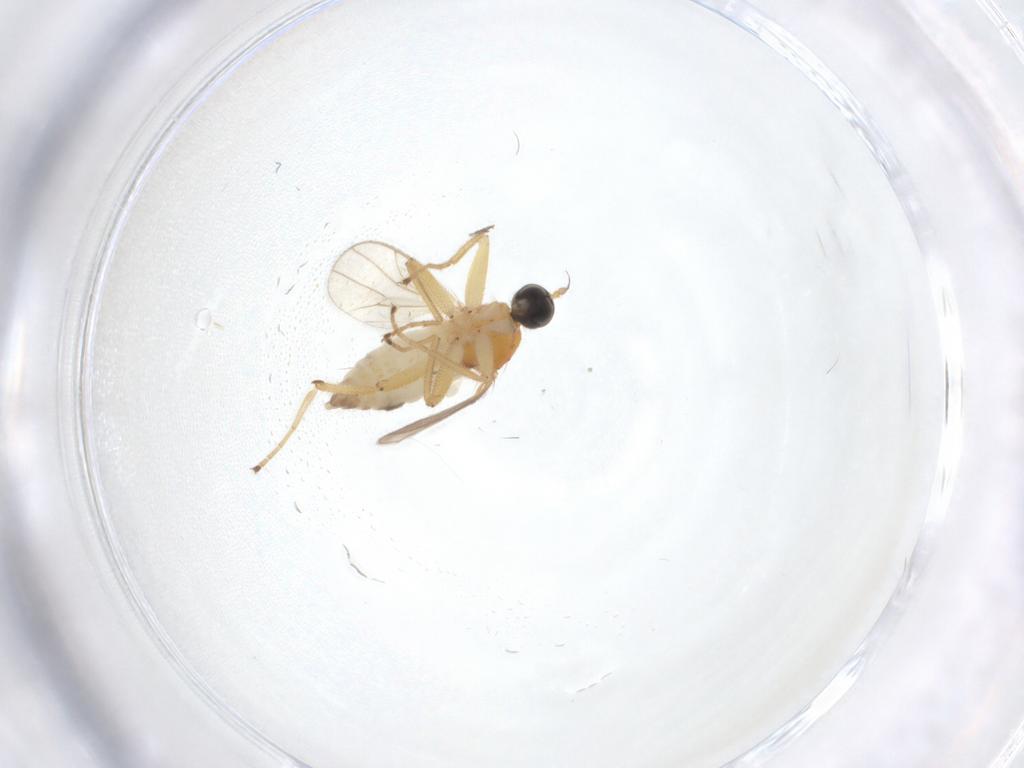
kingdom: Animalia
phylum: Arthropoda
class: Insecta
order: Diptera
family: Hybotidae
